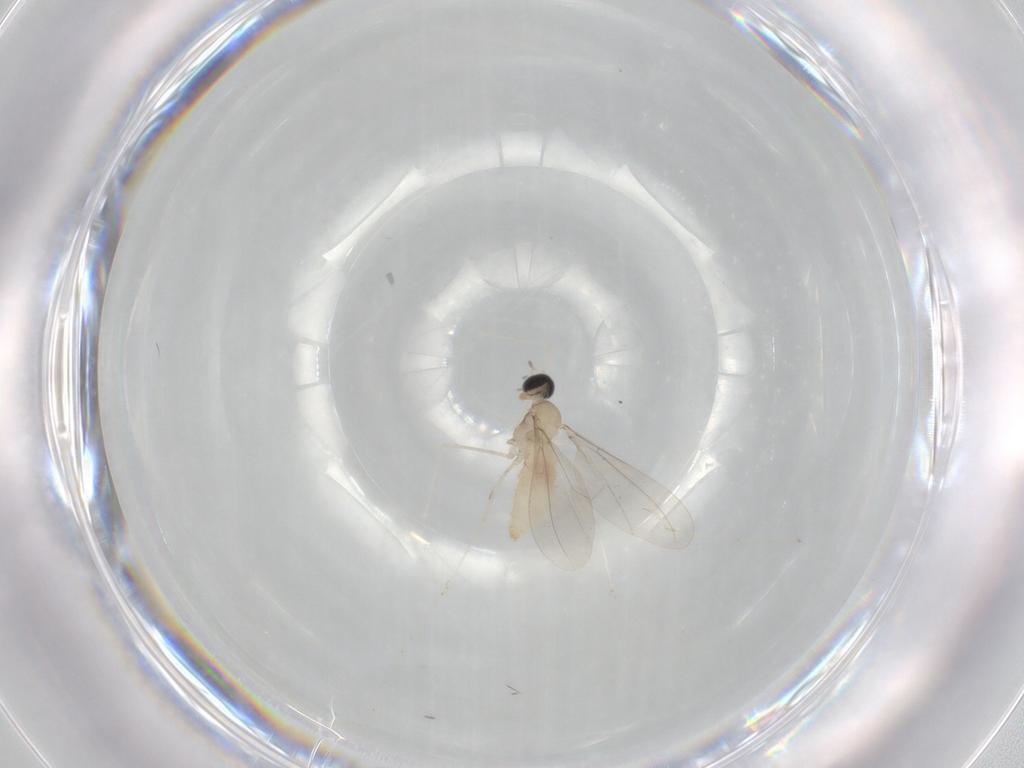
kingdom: Animalia
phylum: Arthropoda
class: Insecta
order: Diptera
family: Cecidomyiidae
